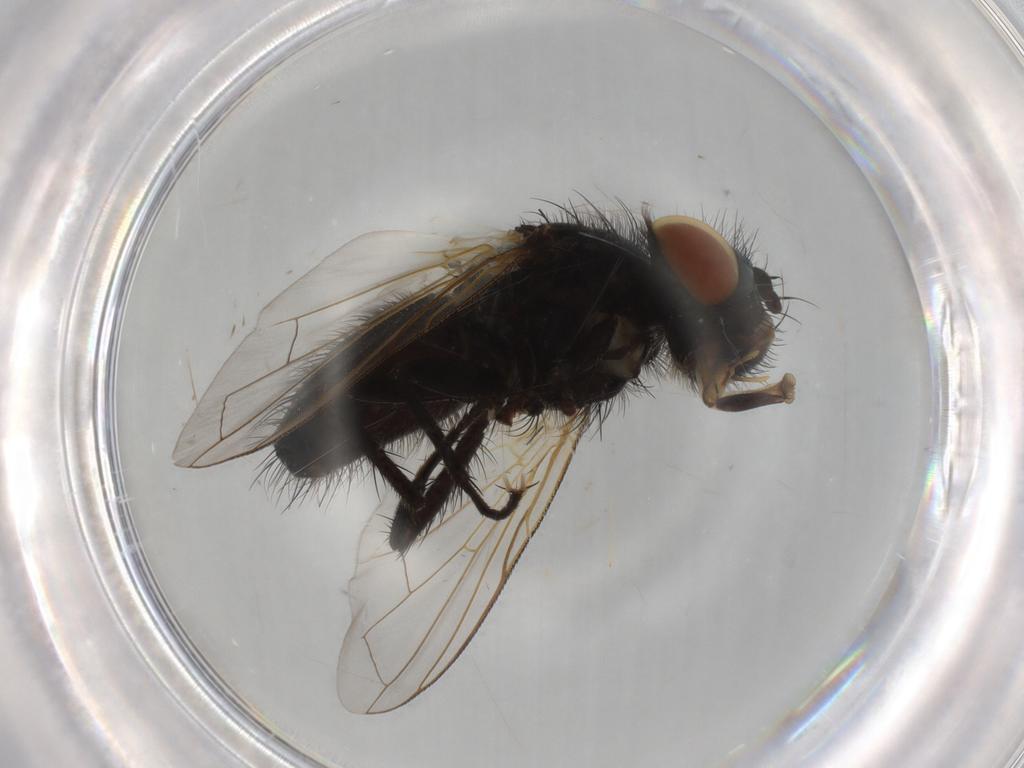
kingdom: Animalia
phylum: Arthropoda
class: Insecta
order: Diptera
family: Tachinidae
